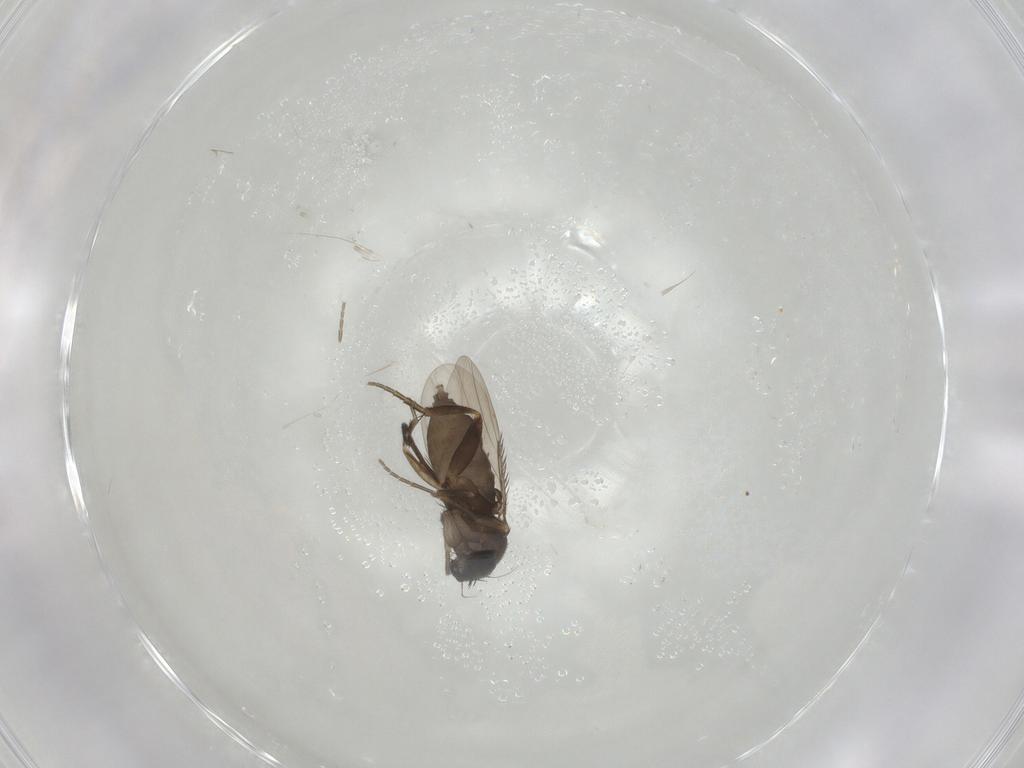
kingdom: Animalia
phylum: Arthropoda
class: Insecta
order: Diptera
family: Phoridae
